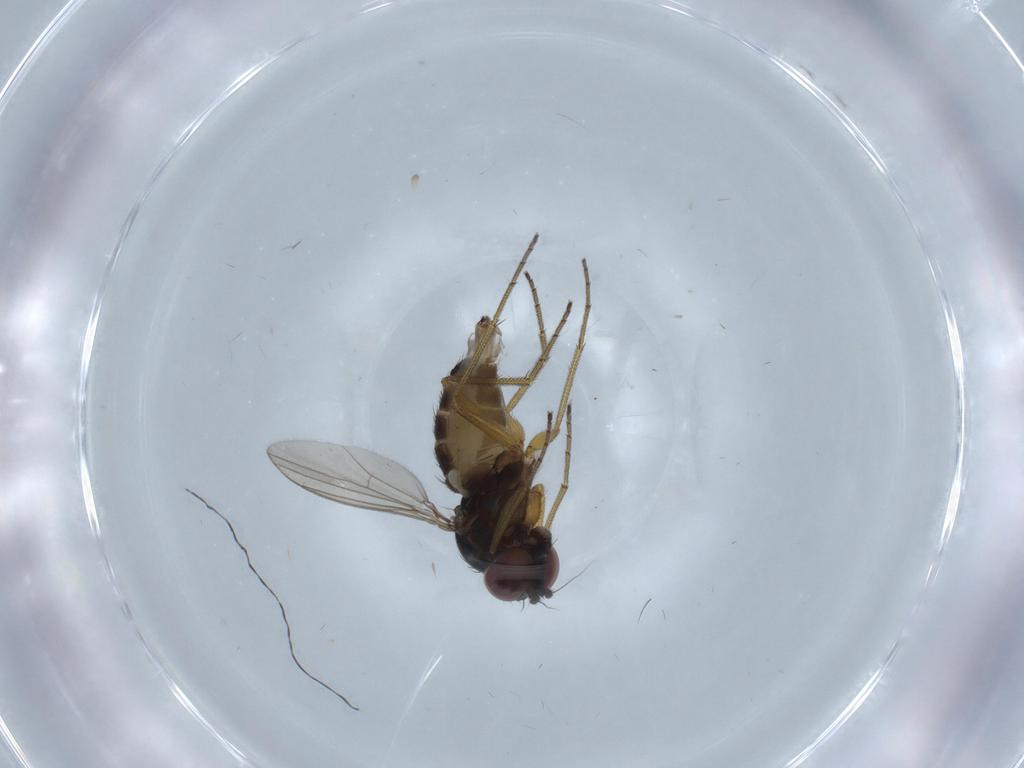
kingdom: Animalia
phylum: Arthropoda
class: Insecta
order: Diptera
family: Dolichopodidae
